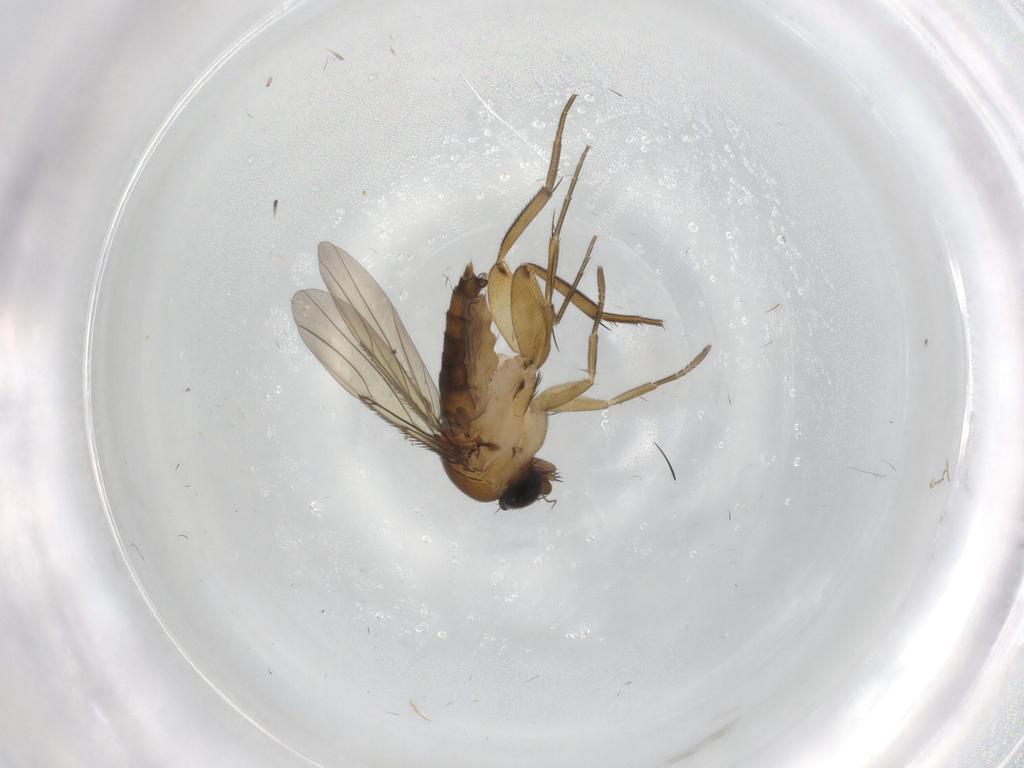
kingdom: Animalia
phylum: Arthropoda
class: Insecta
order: Diptera
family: Phoridae
